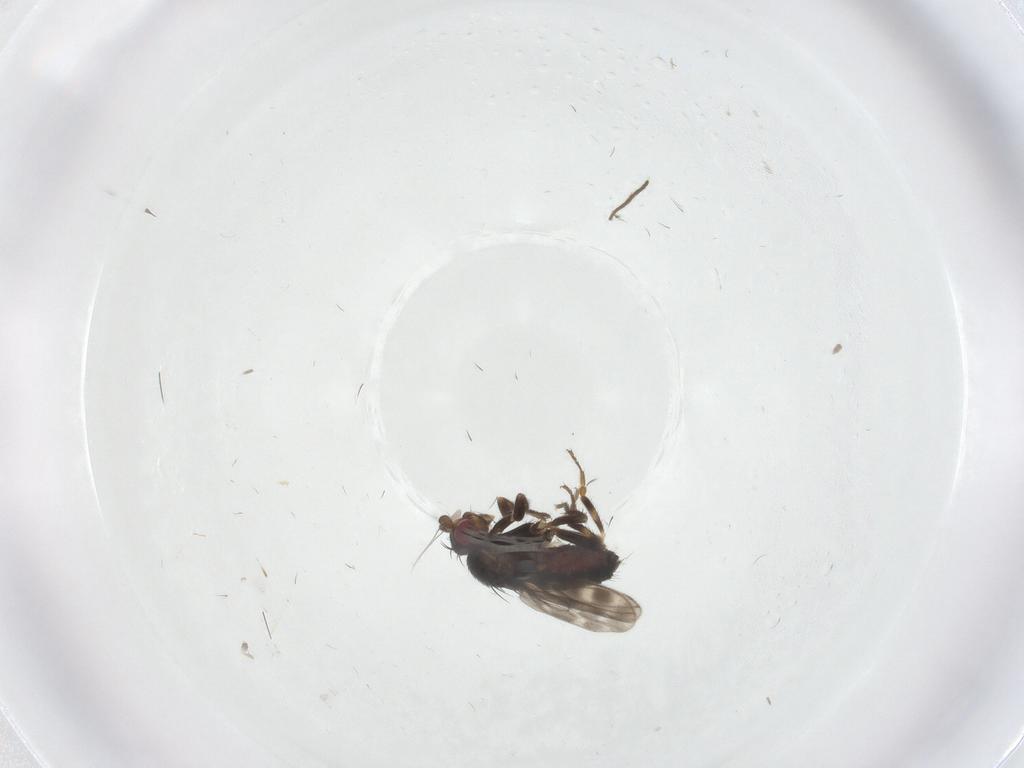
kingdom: Animalia
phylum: Arthropoda
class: Insecta
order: Diptera
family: Sphaeroceridae
